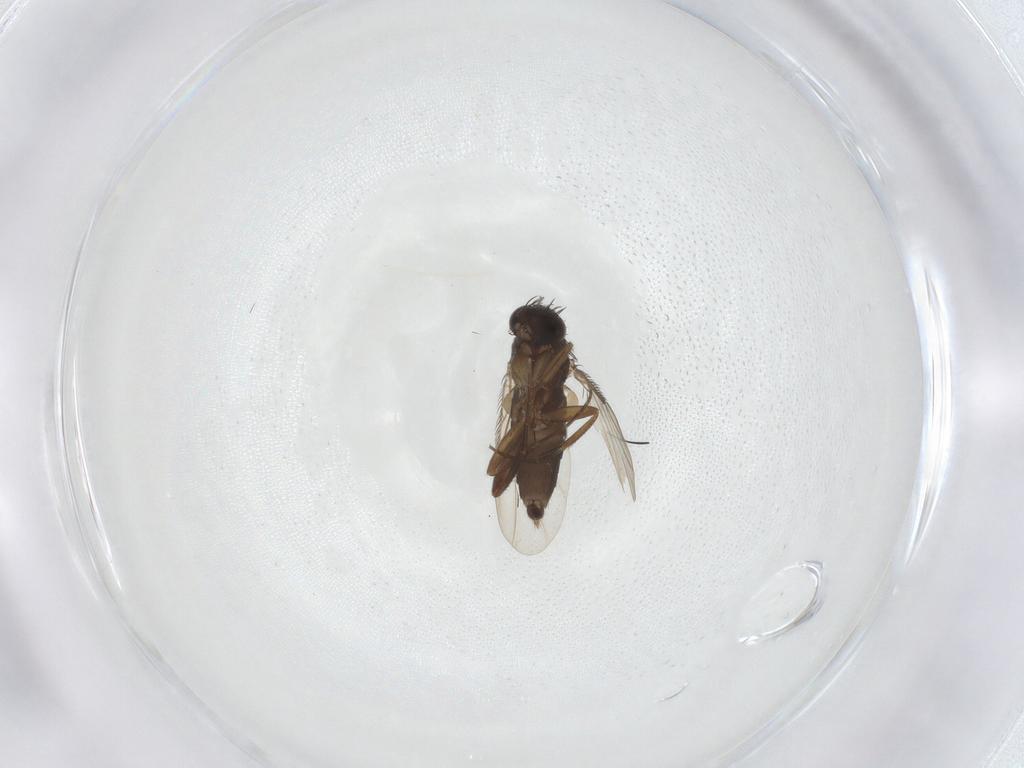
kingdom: Animalia
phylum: Arthropoda
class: Insecta
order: Diptera
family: Phoridae
